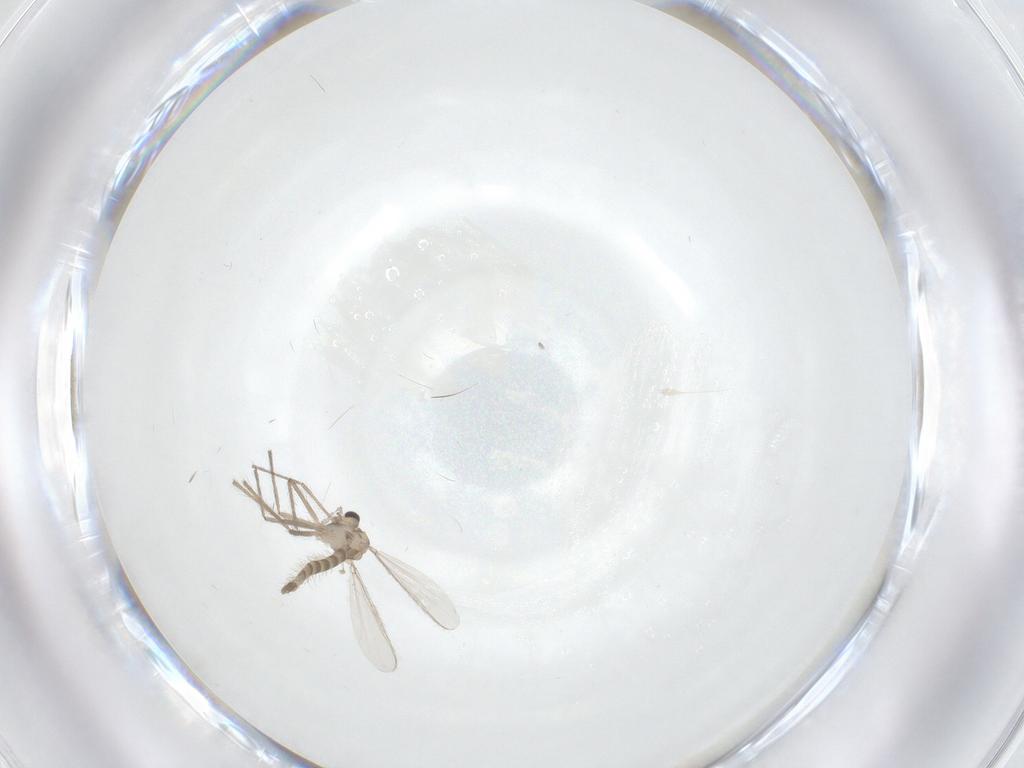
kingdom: Animalia
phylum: Arthropoda
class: Insecta
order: Diptera
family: Chironomidae
